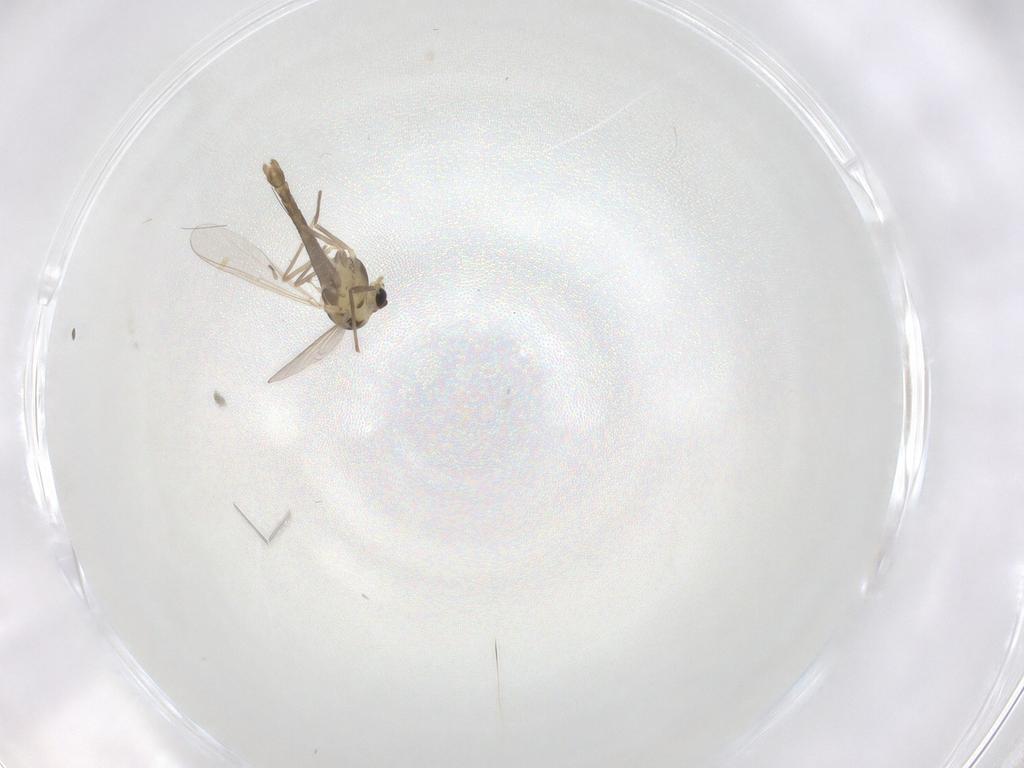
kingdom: Animalia
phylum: Arthropoda
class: Insecta
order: Diptera
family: Chironomidae
